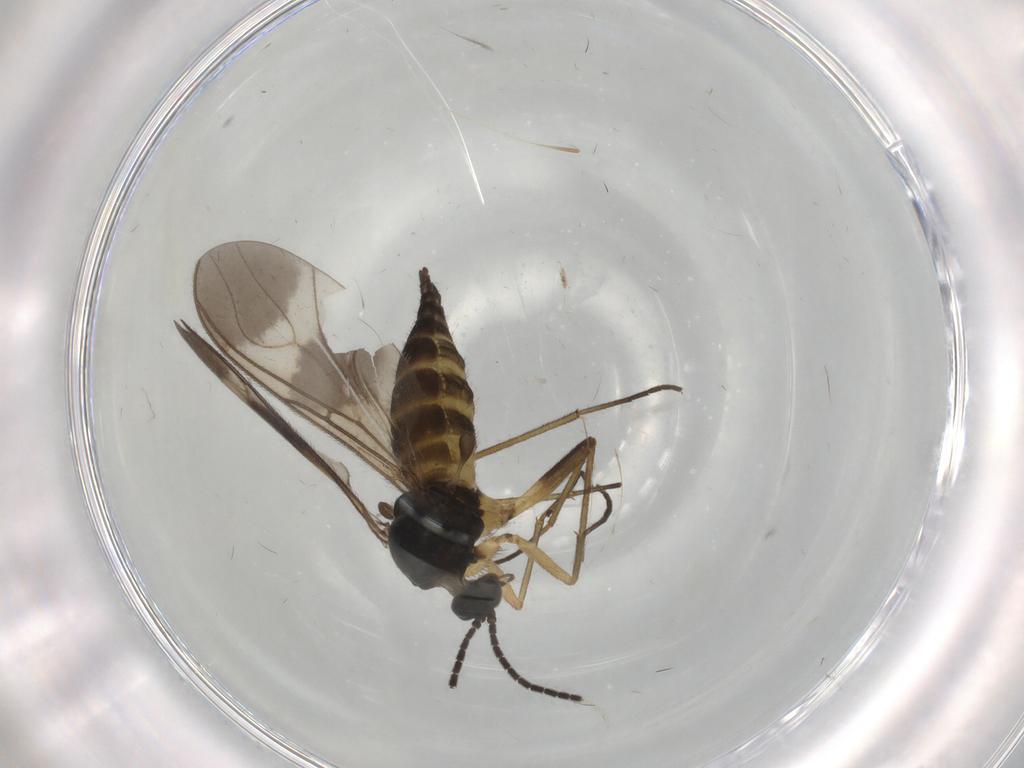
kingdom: Animalia
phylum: Arthropoda
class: Insecta
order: Diptera
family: Sciaridae
